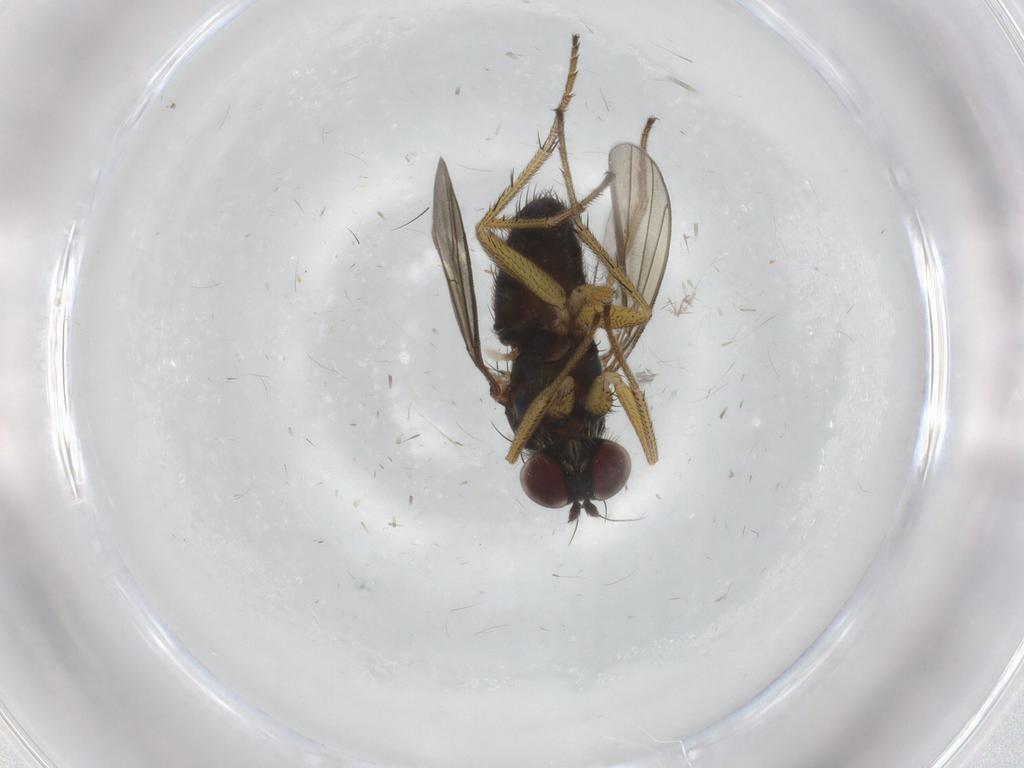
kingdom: Animalia
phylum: Arthropoda
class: Insecta
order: Diptera
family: Dolichopodidae
